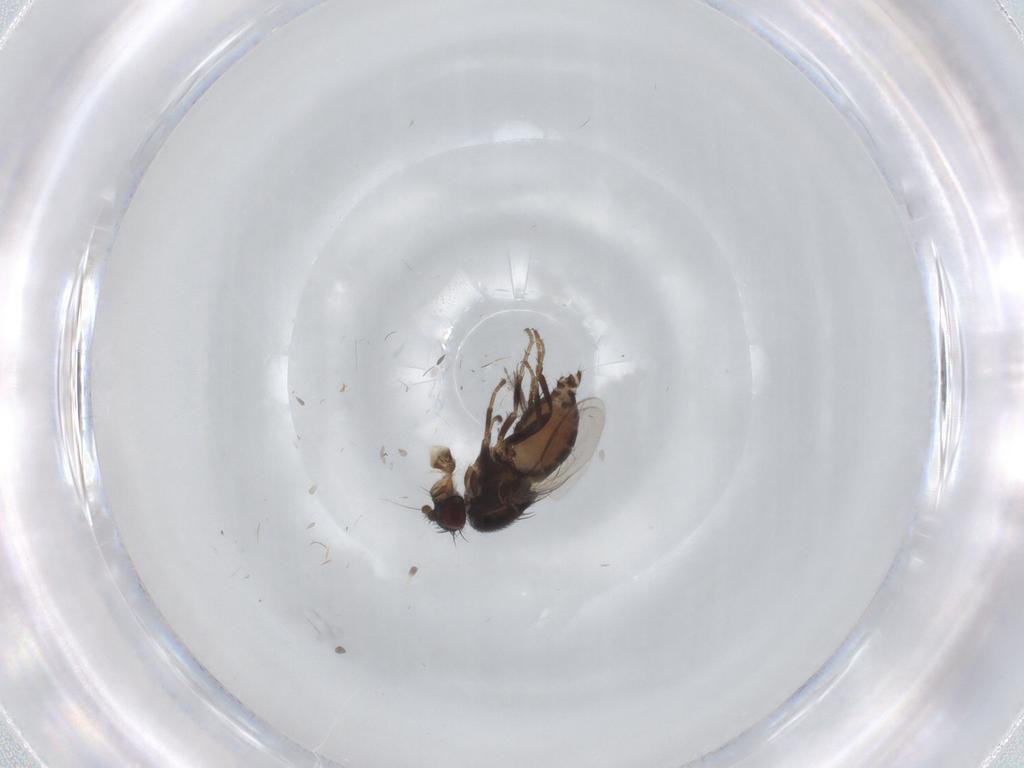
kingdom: Animalia
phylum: Arthropoda
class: Insecta
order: Diptera
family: Sphaeroceridae
